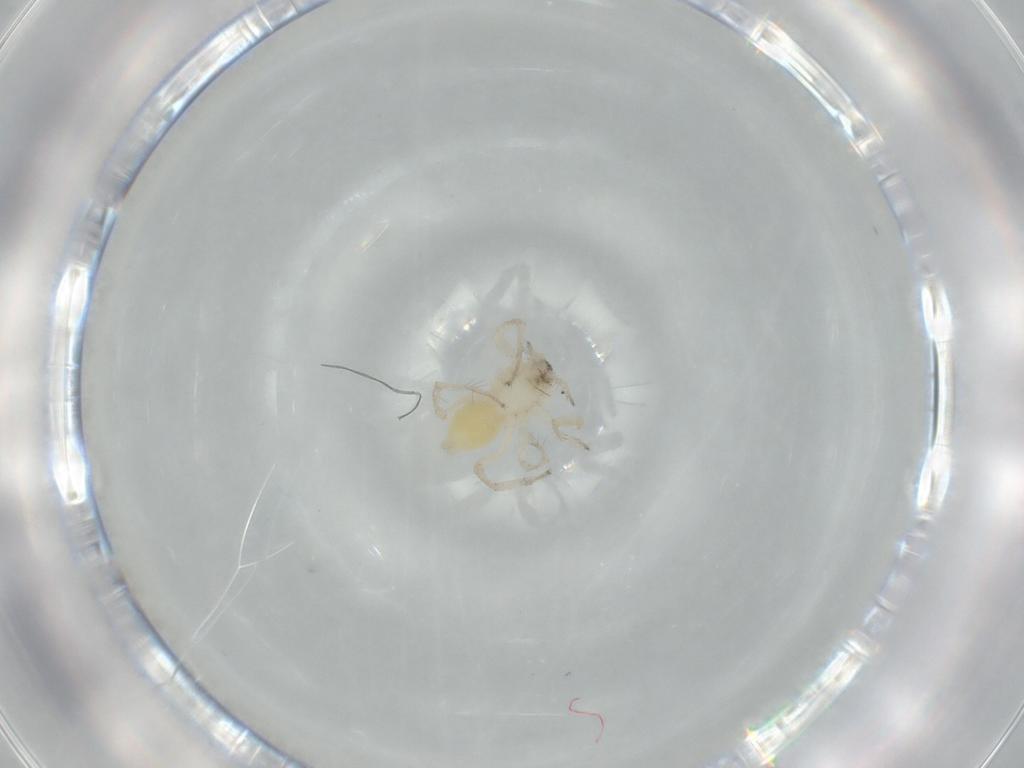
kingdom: Animalia
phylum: Arthropoda
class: Arachnida
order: Araneae
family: Anyphaenidae
